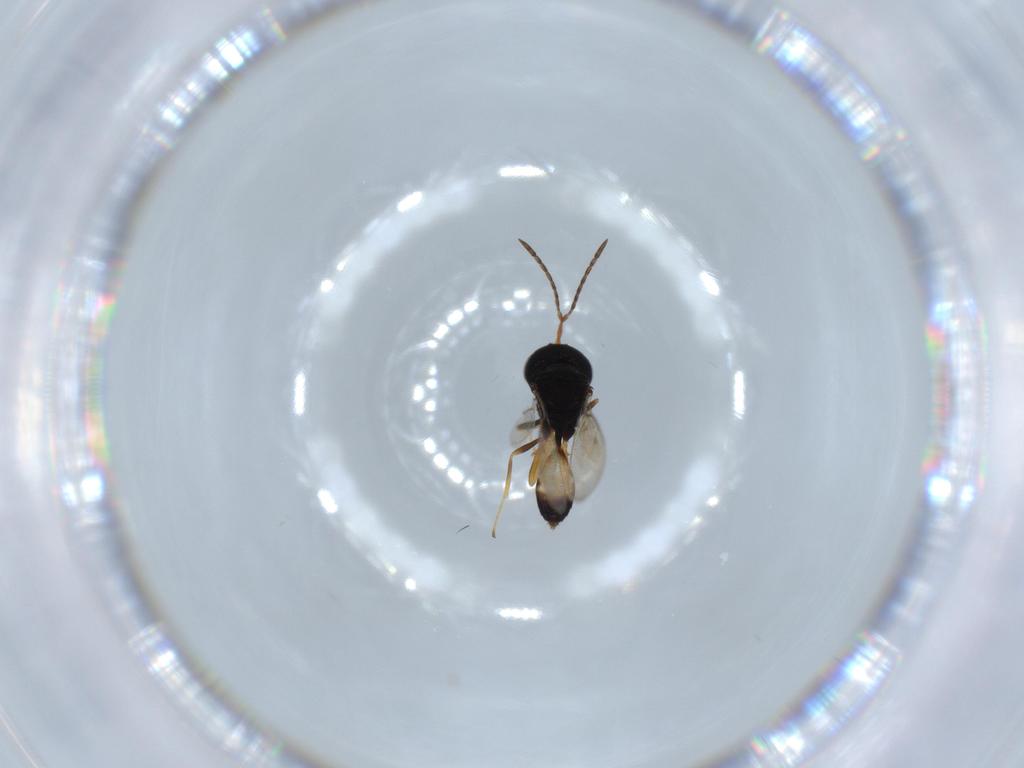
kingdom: Animalia
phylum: Arthropoda
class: Insecta
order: Hymenoptera
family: Pteromalidae
